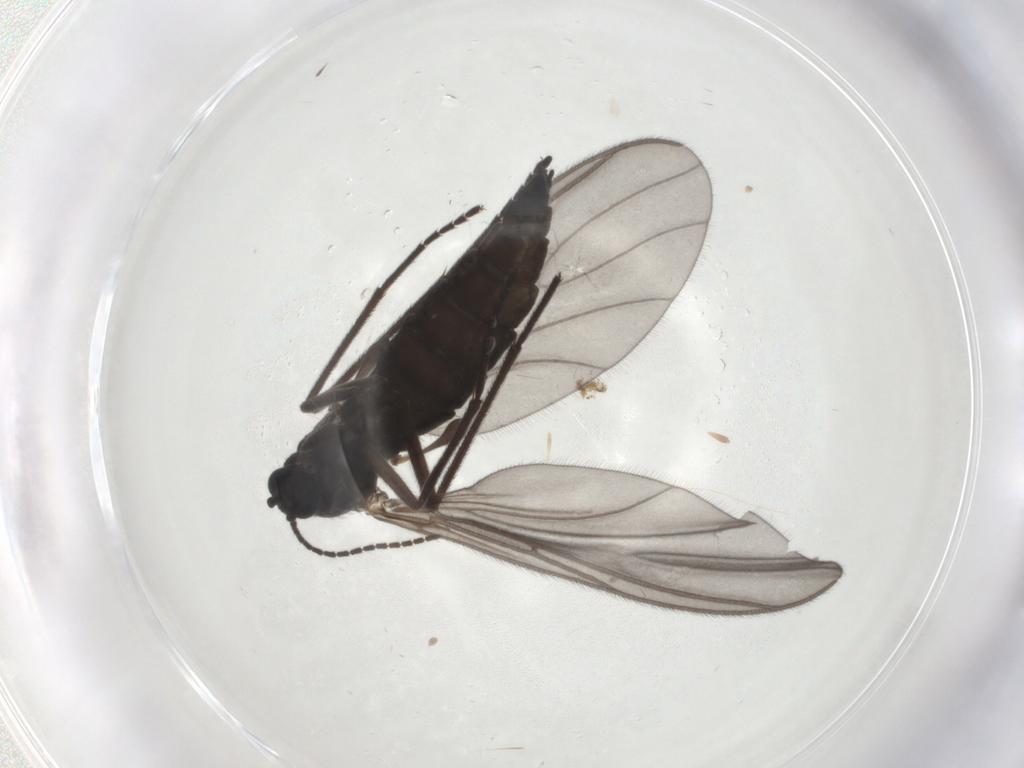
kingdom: Animalia
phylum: Arthropoda
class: Insecta
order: Diptera
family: Sciaridae
